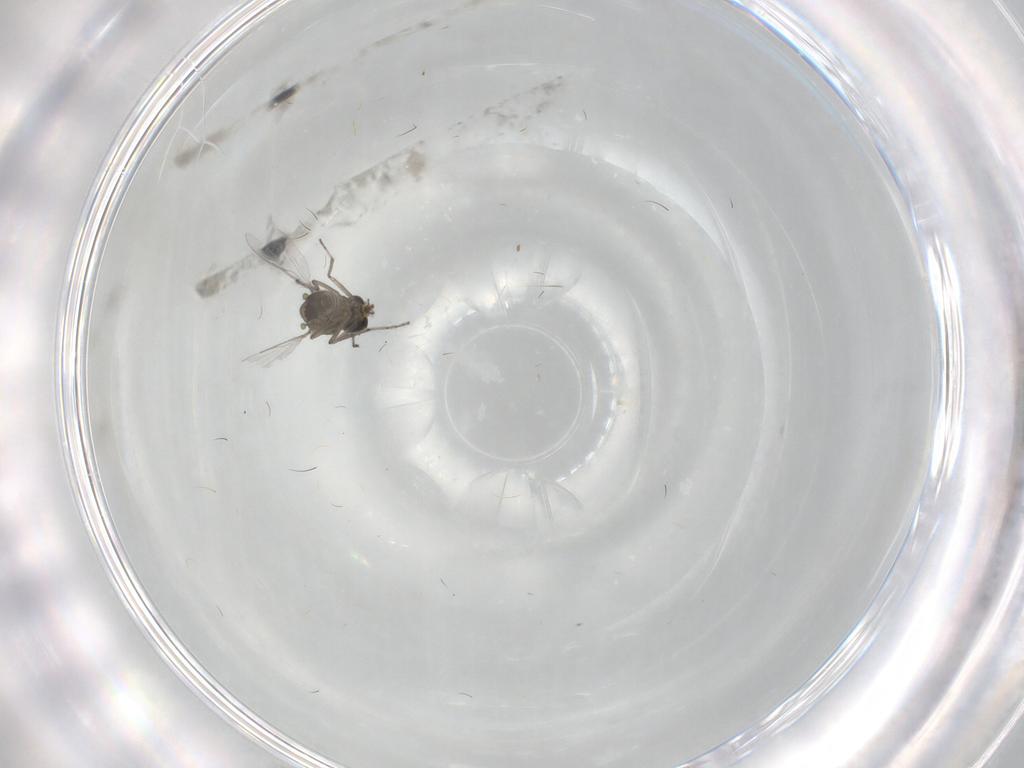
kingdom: Animalia
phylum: Arthropoda
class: Insecta
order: Diptera
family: Ceratopogonidae
